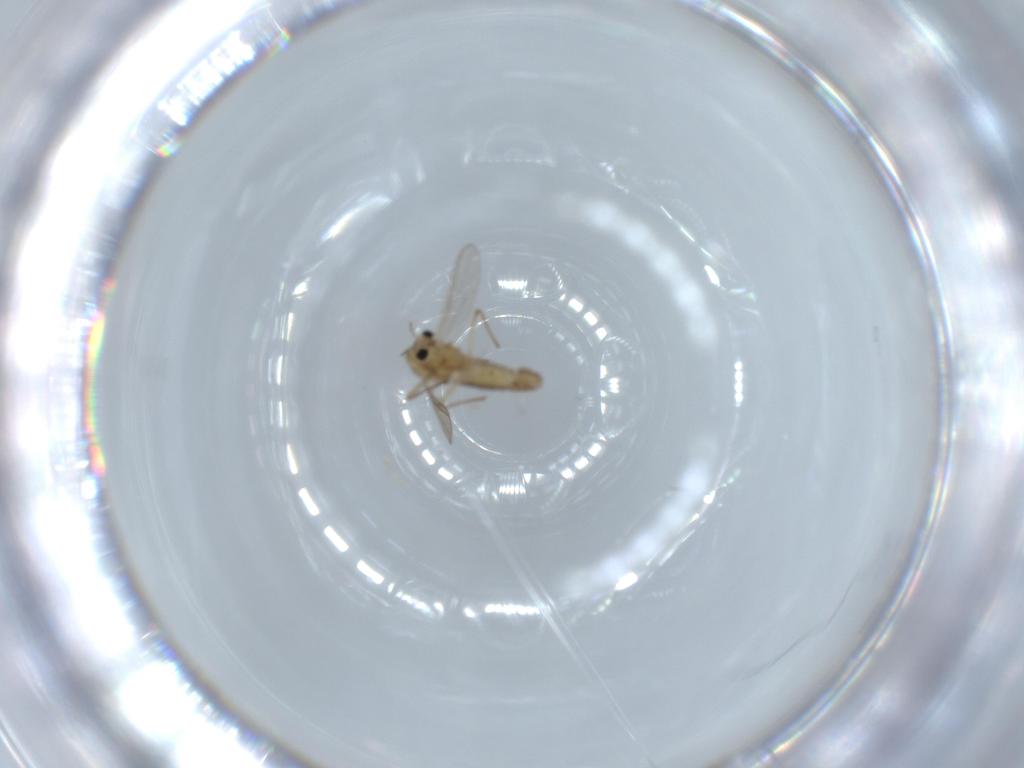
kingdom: Animalia
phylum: Arthropoda
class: Insecta
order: Diptera
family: Chironomidae
